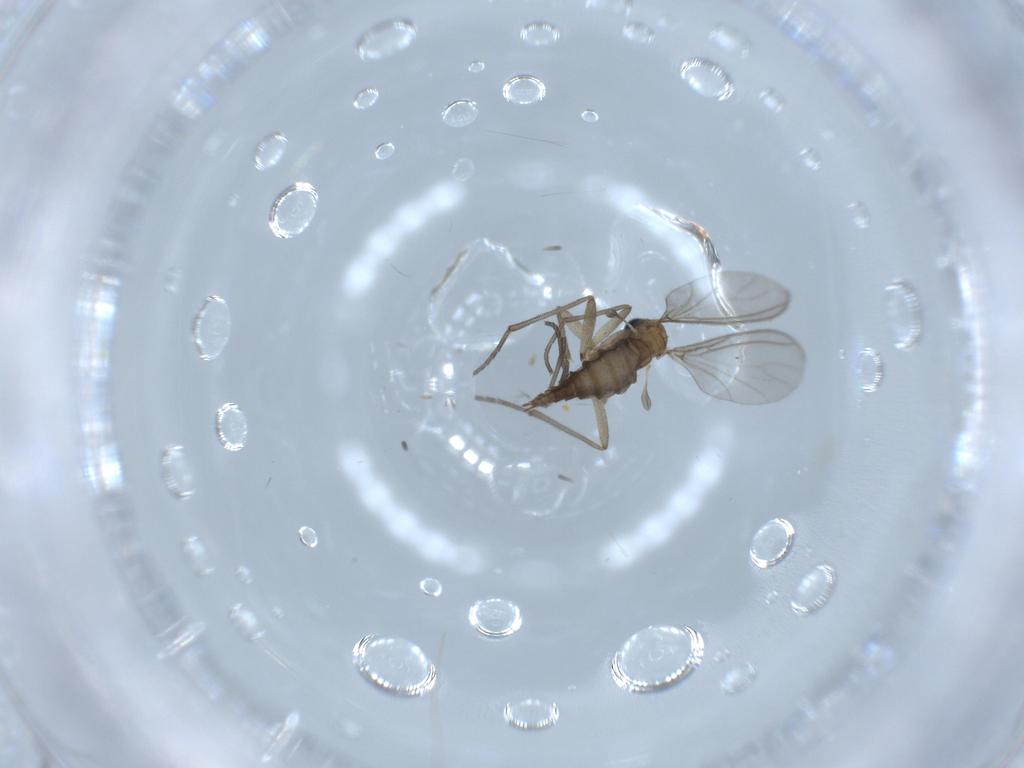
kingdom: Animalia
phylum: Arthropoda
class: Insecta
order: Diptera
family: Sciaridae
